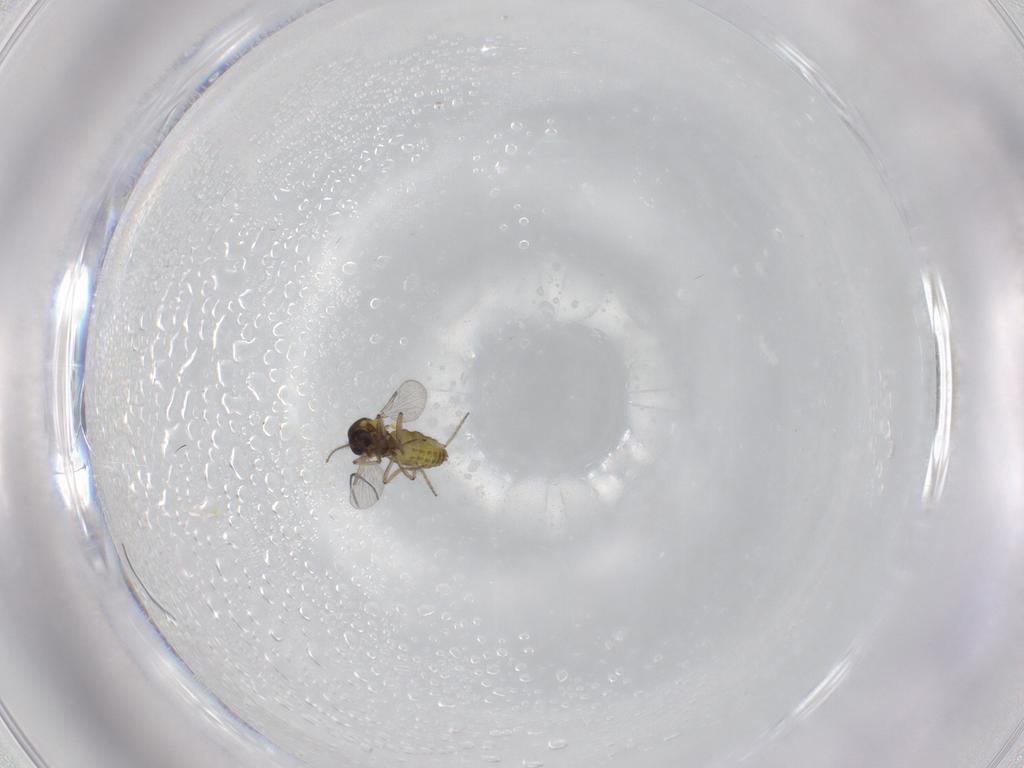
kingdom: Animalia
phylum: Arthropoda
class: Insecta
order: Diptera
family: Ceratopogonidae
